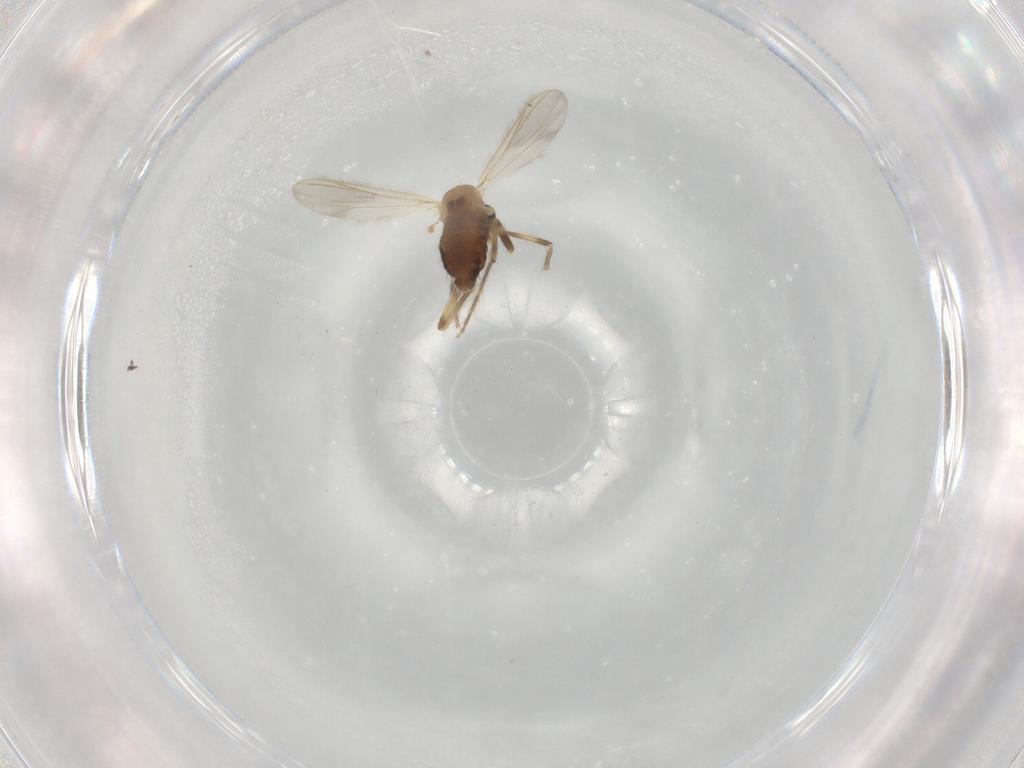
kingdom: Animalia
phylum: Arthropoda
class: Insecta
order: Diptera
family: Chironomidae
